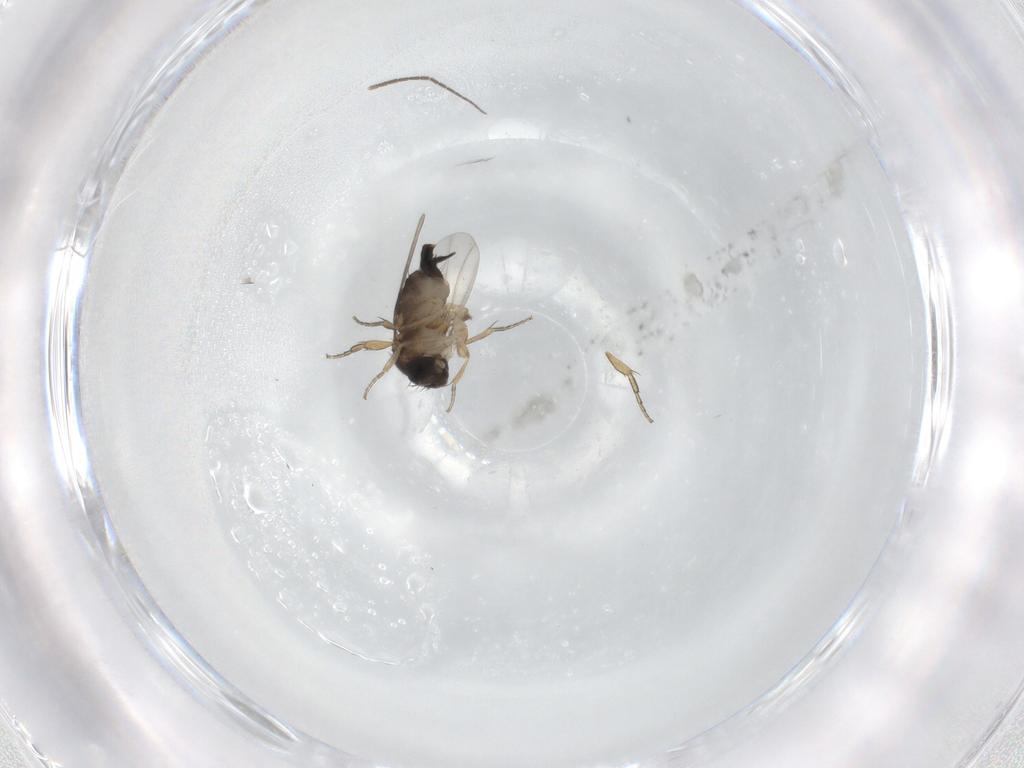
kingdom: Animalia
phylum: Arthropoda
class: Insecta
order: Diptera
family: Phoridae
